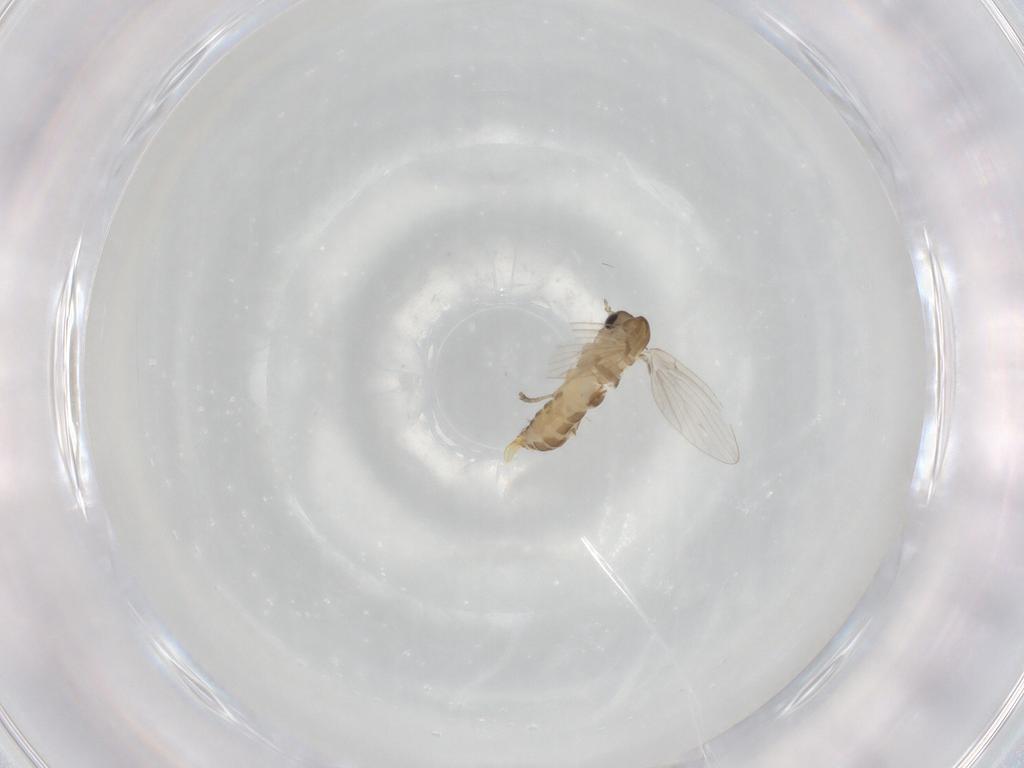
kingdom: Animalia
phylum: Arthropoda
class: Insecta
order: Diptera
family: Psychodidae
